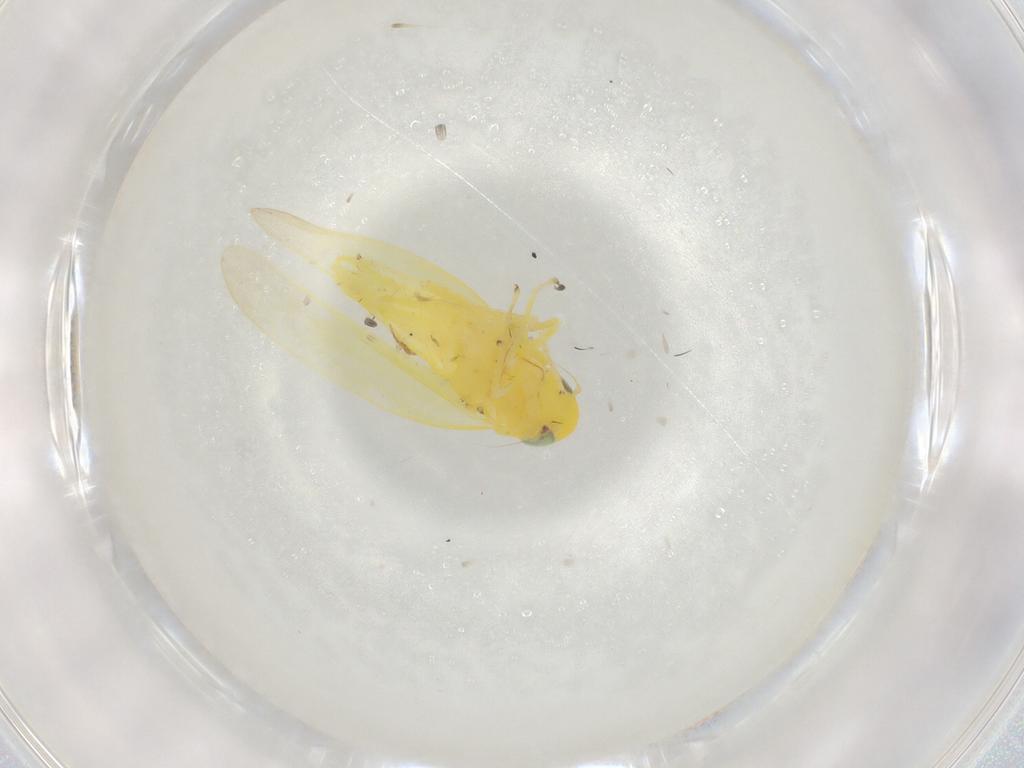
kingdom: Animalia
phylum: Arthropoda
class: Insecta
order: Hemiptera
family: Cicadellidae
